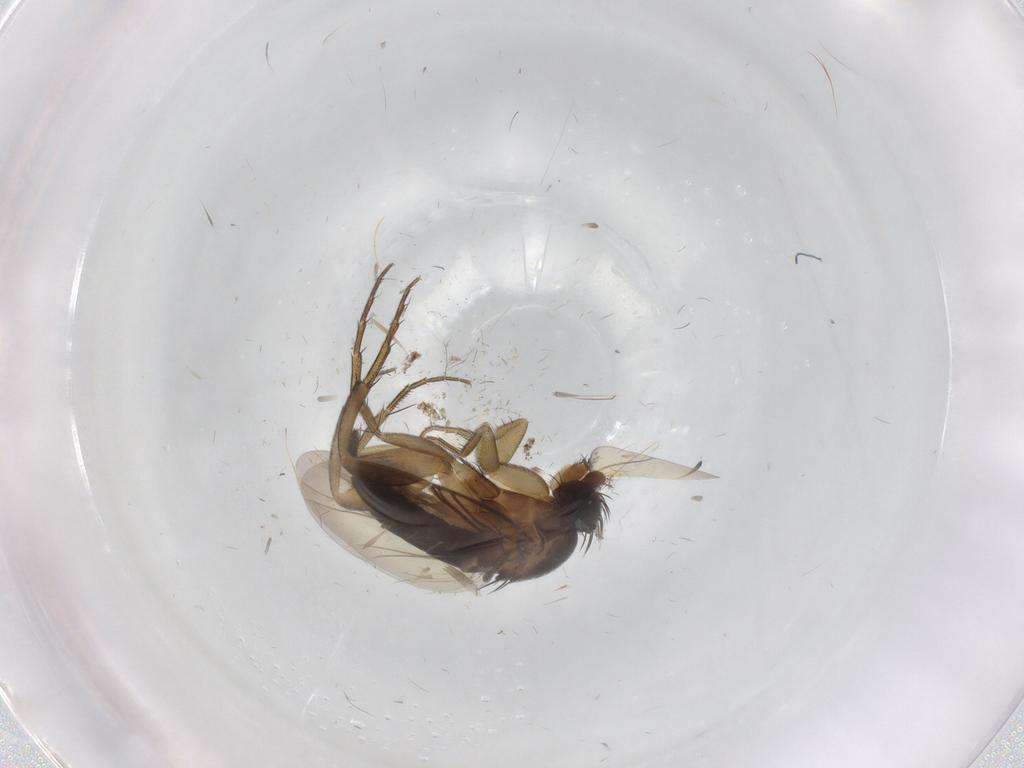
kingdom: Animalia
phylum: Arthropoda
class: Insecta
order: Diptera
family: Phoridae
